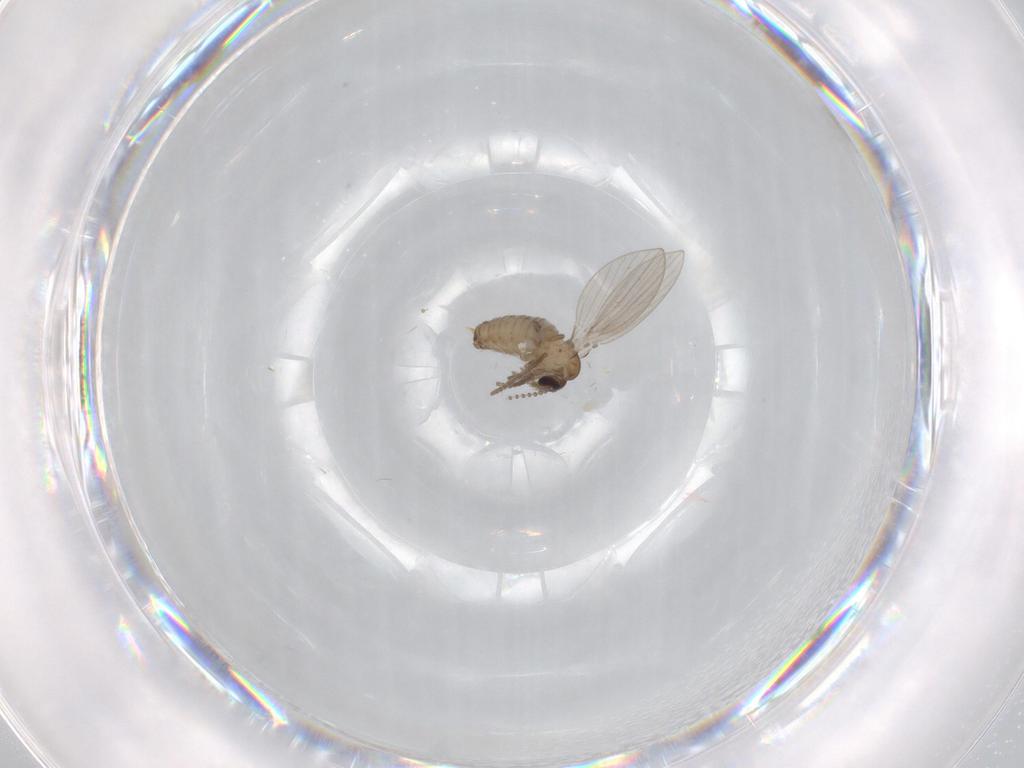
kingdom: Animalia
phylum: Arthropoda
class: Insecta
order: Diptera
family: Psychodidae
